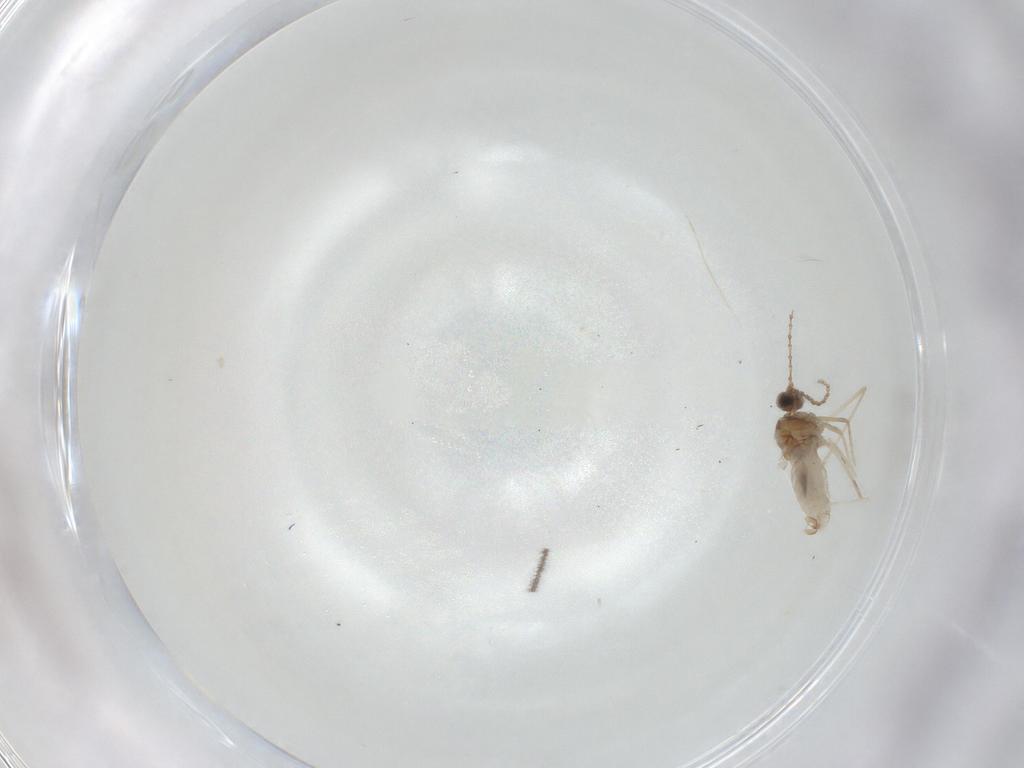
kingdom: Animalia
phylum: Arthropoda
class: Insecta
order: Diptera
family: Cecidomyiidae
